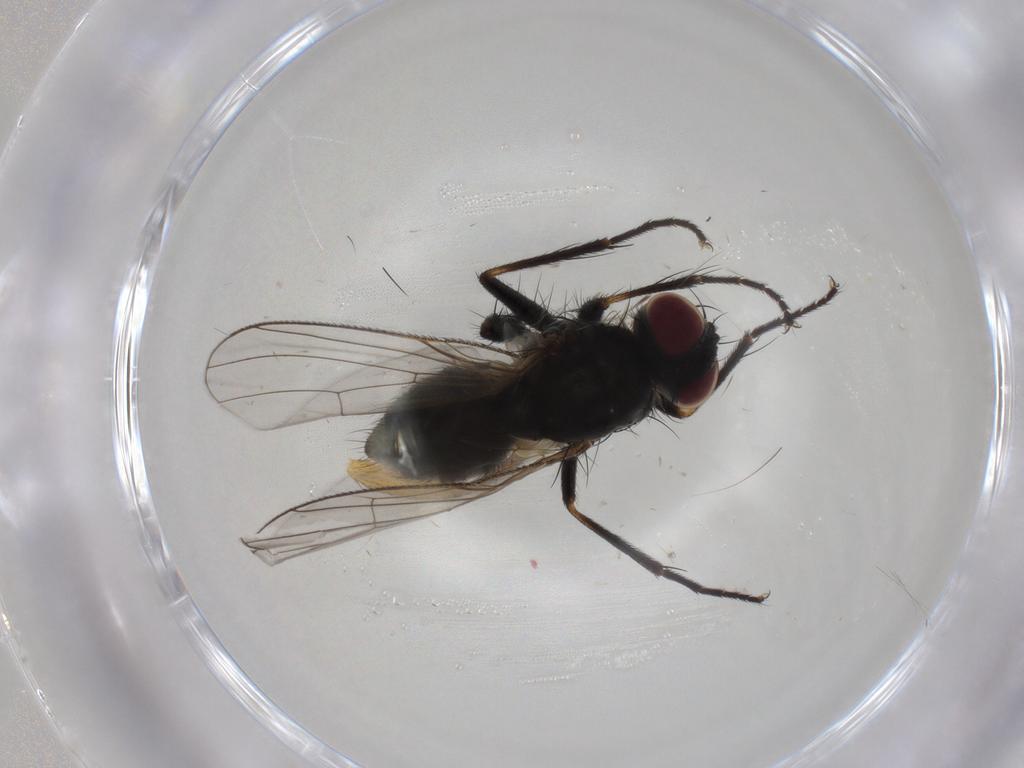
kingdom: Animalia
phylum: Arthropoda
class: Insecta
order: Diptera
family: Muscidae
